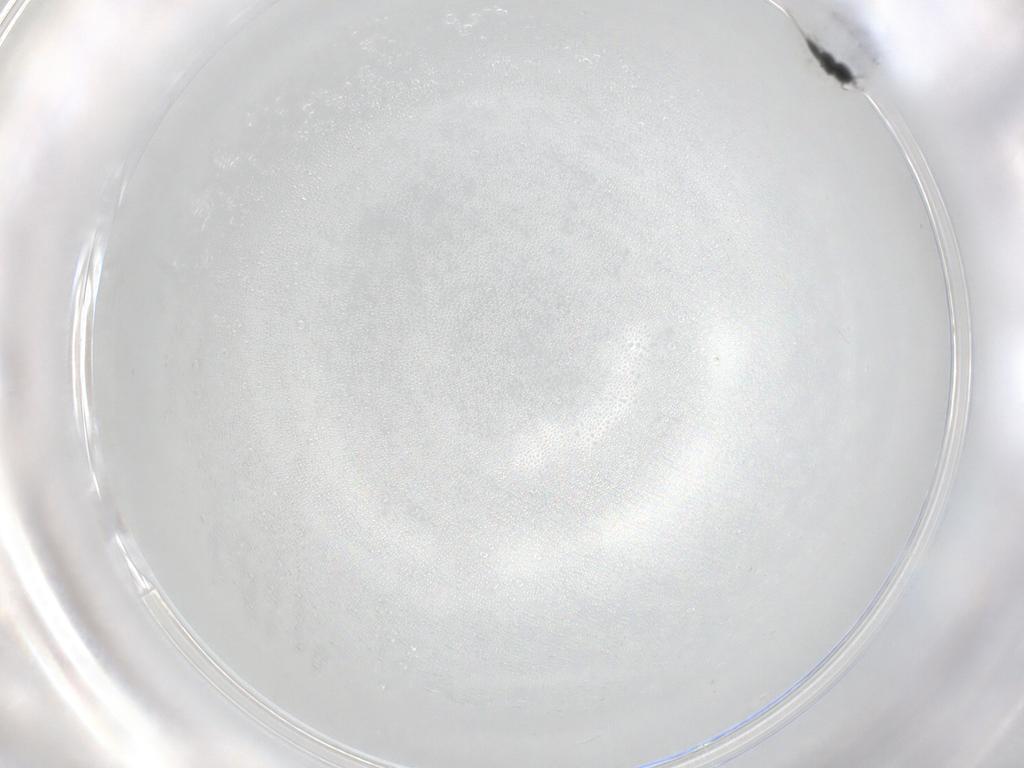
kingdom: Animalia
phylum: Arthropoda
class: Insecta
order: Hymenoptera
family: Scelionidae
